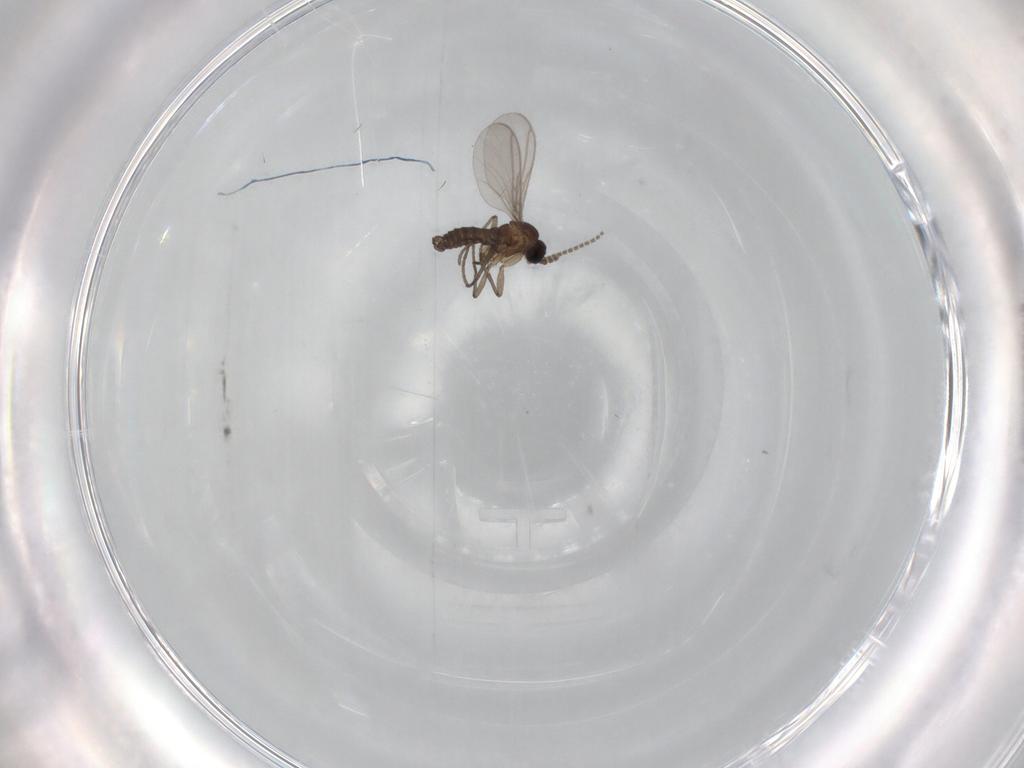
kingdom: Animalia
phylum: Arthropoda
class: Insecta
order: Diptera
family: Sciaridae
